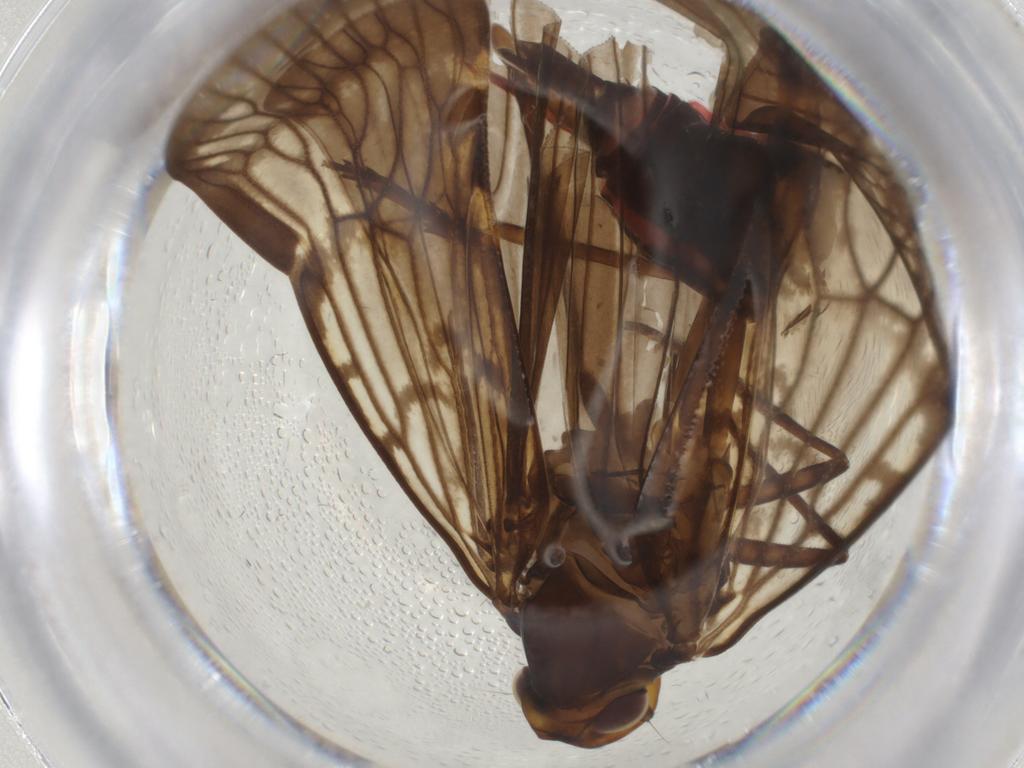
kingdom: Animalia
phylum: Arthropoda
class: Insecta
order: Hemiptera
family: Cixiidae
